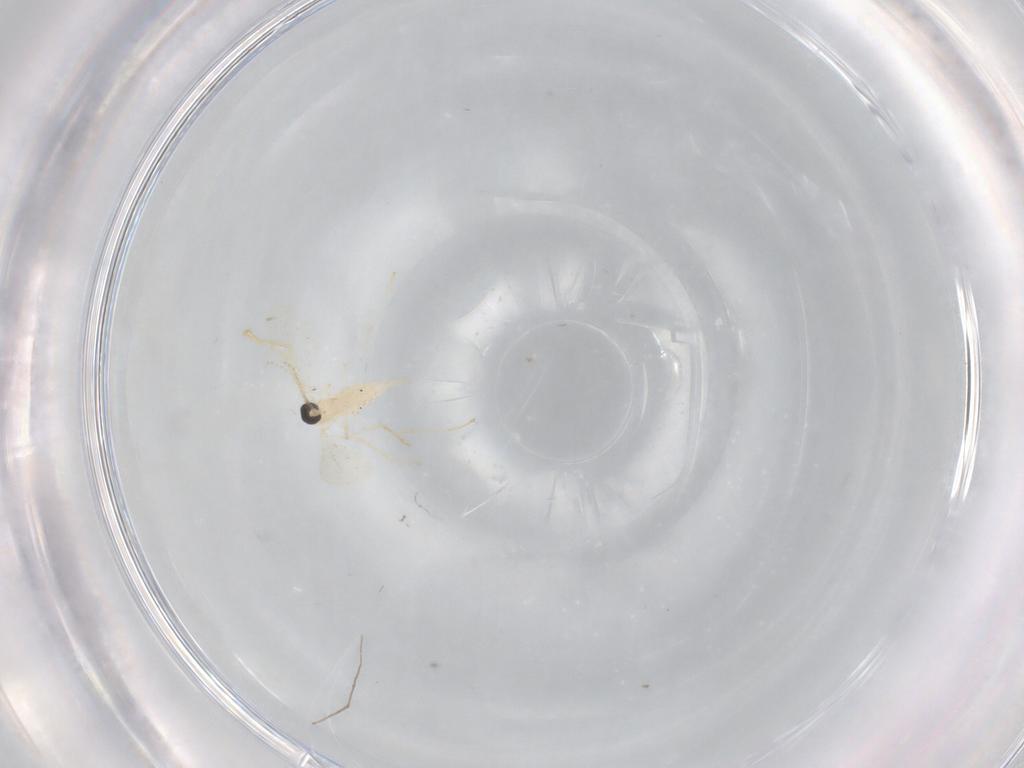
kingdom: Animalia
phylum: Arthropoda
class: Insecta
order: Diptera
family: Cecidomyiidae
